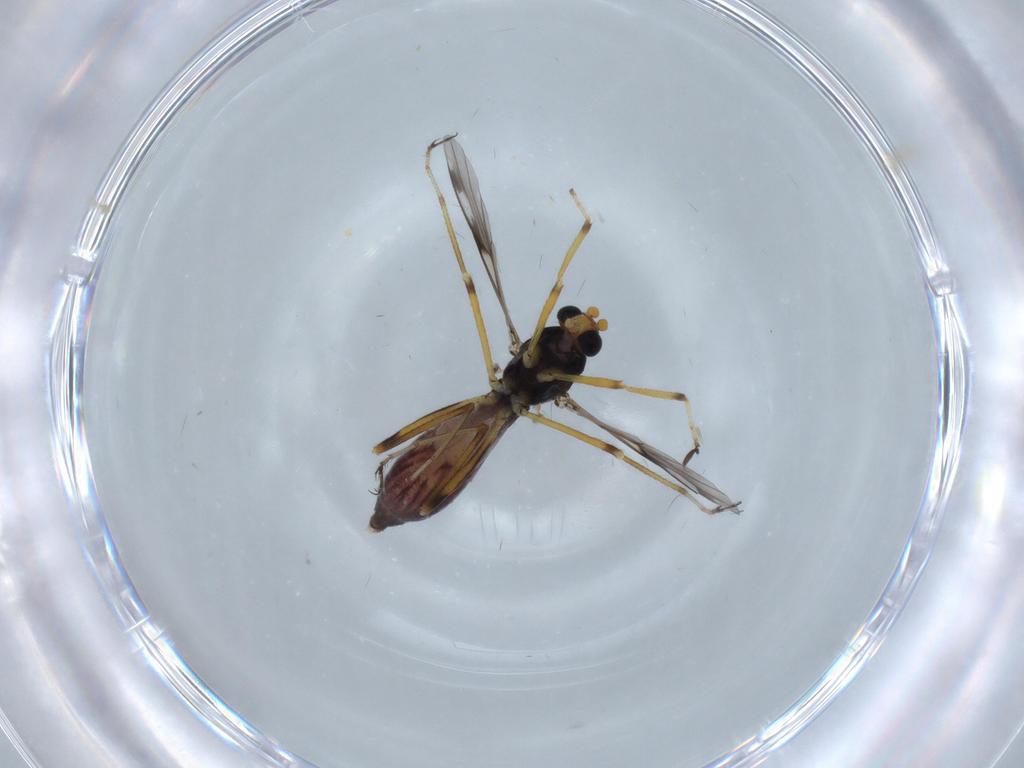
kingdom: Animalia
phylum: Arthropoda
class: Insecta
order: Diptera
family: Ceratopogonidae
